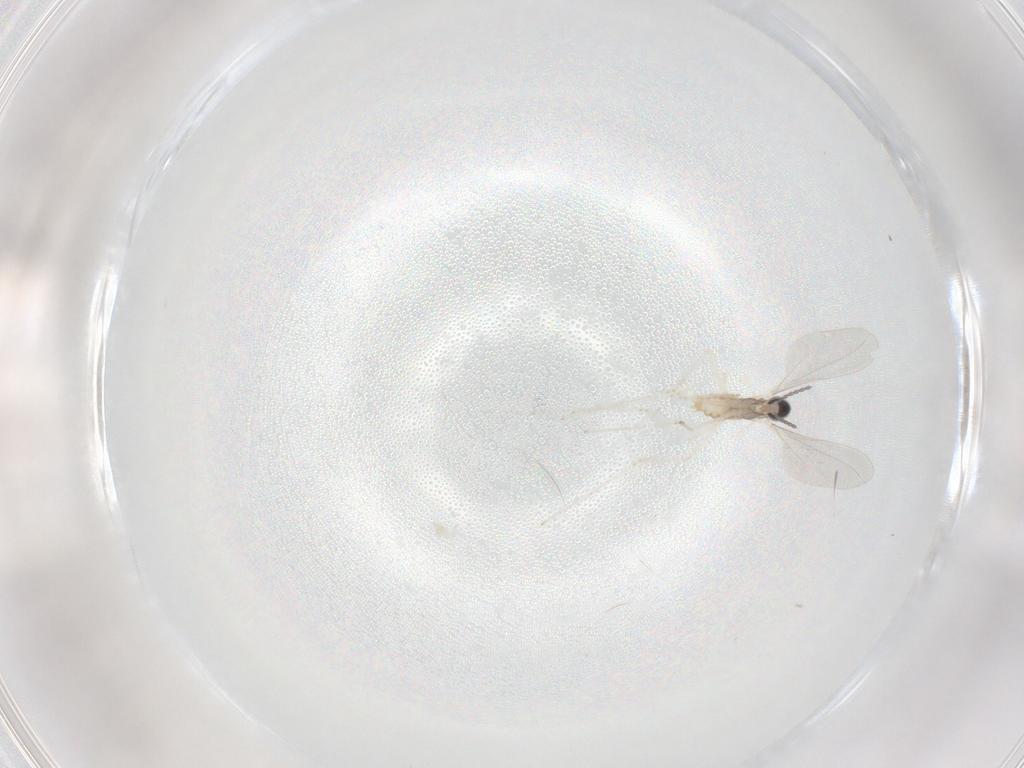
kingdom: Animalia
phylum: Arthropoda
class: Insecta
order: Diptera
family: Cecidomyiidae
